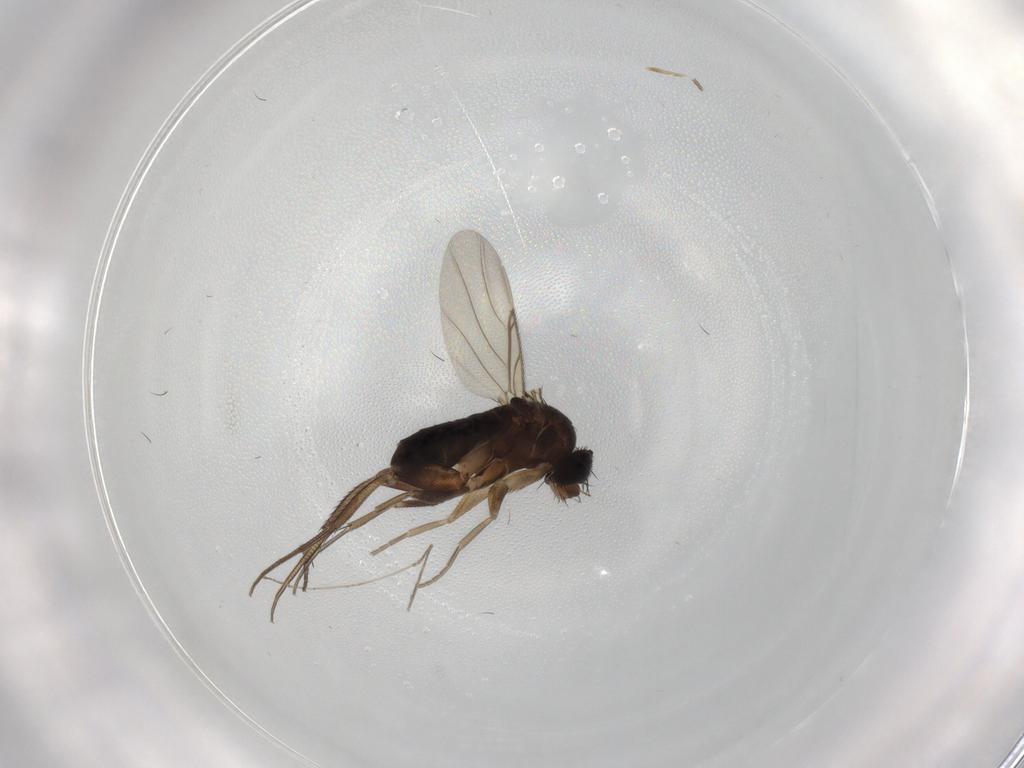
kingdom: Animalia
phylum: Arthropoda
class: Insecta
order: Diptera
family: Phoridae
